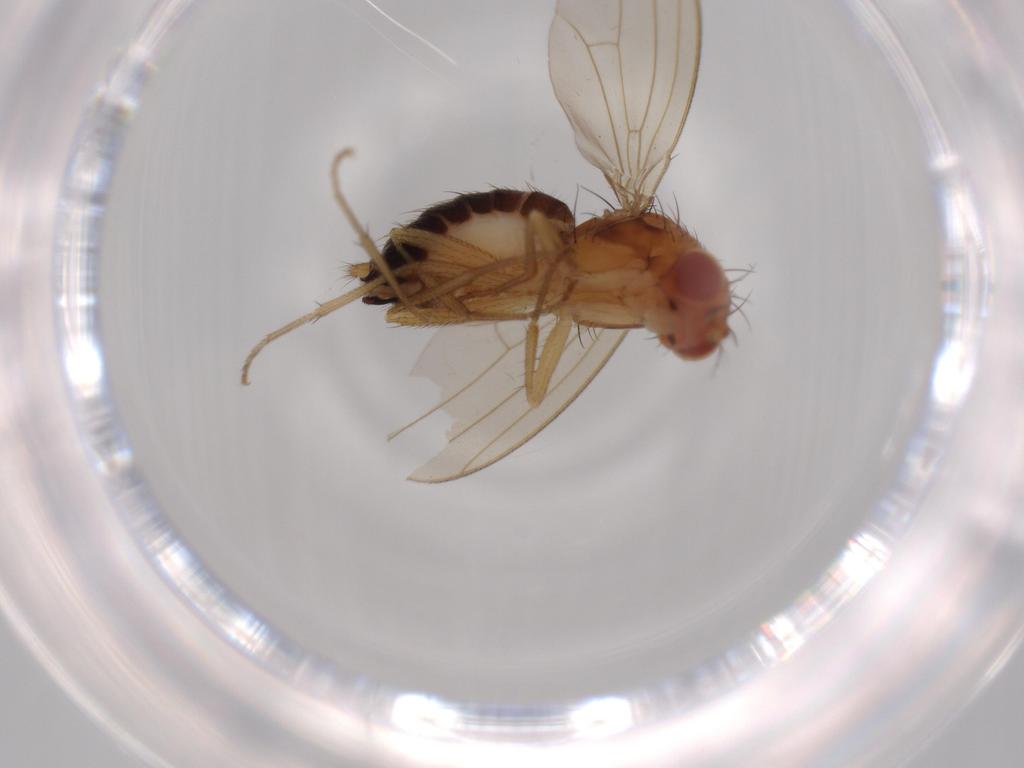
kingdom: Animalia
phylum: Arthropoda
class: Insecta
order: Diptera
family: Drosophilidae
